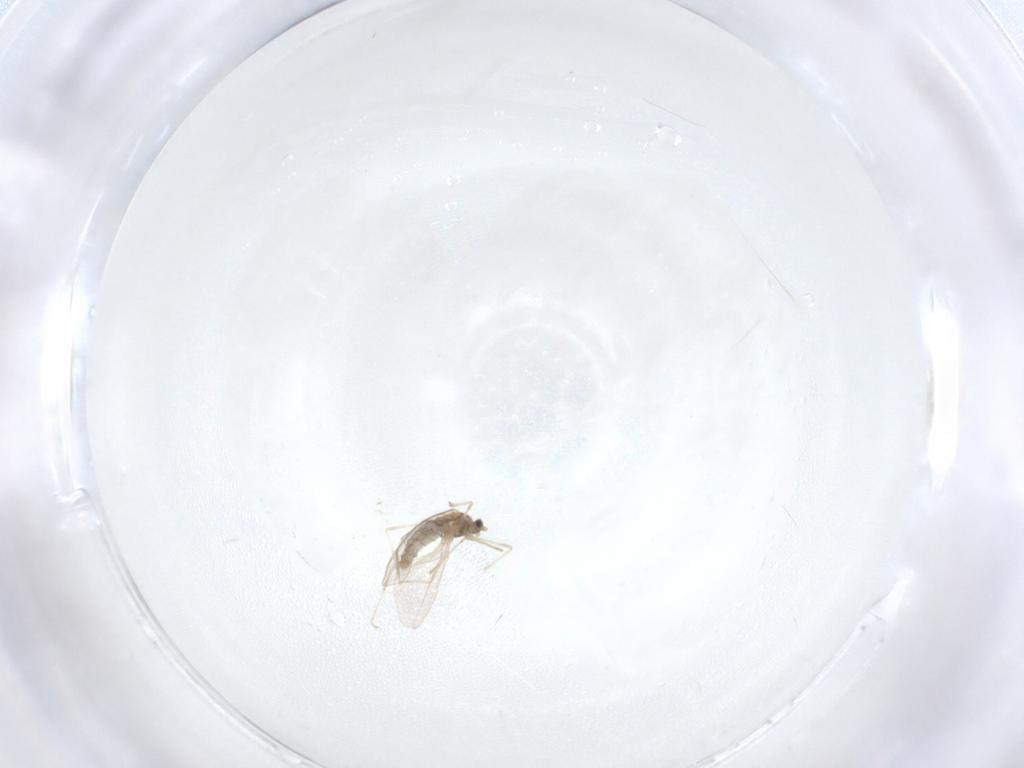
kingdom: Animalia
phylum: Arthropoda
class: Insecta
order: Diptera
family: Cecidomyiidae
